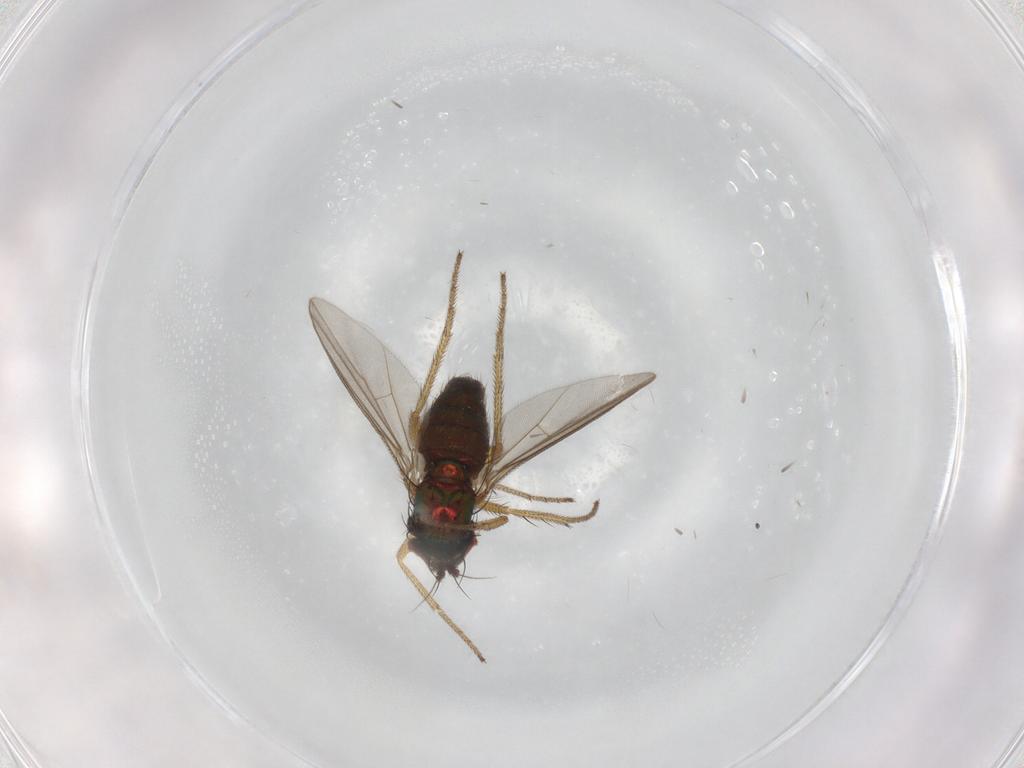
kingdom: Animalia
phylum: Arthropoda
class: Insecta
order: Diptera
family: Dolichopodidae
